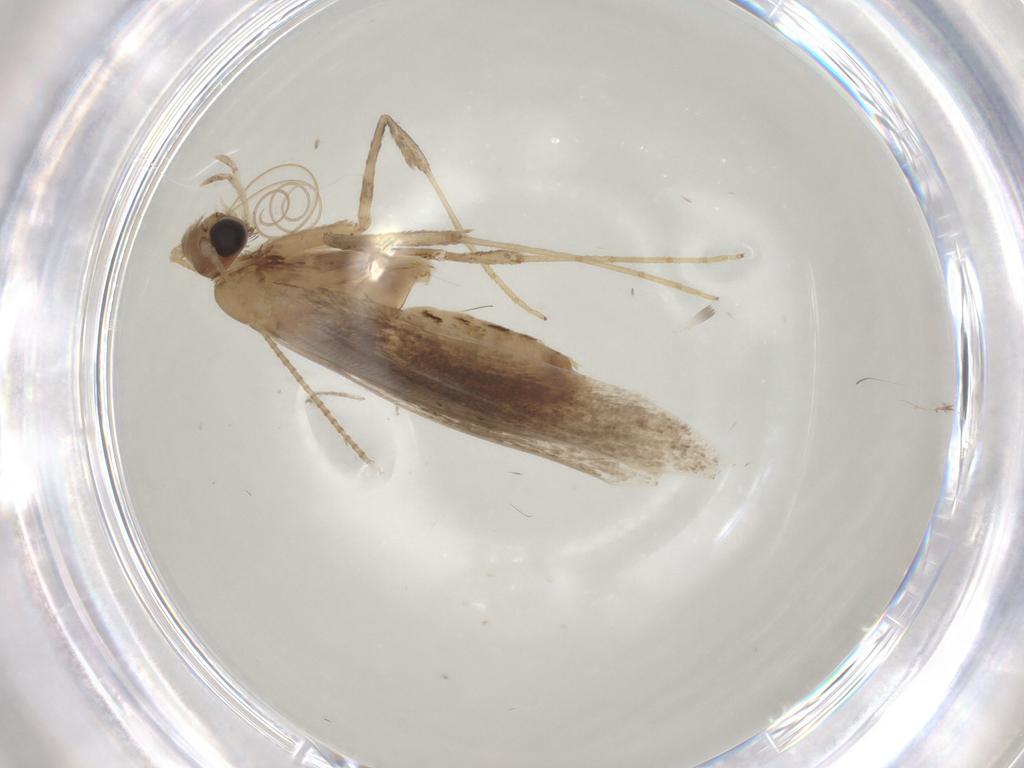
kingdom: Animalia
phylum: Arthropoda
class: Insecta
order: Lepidoptera
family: Gracillariidae
